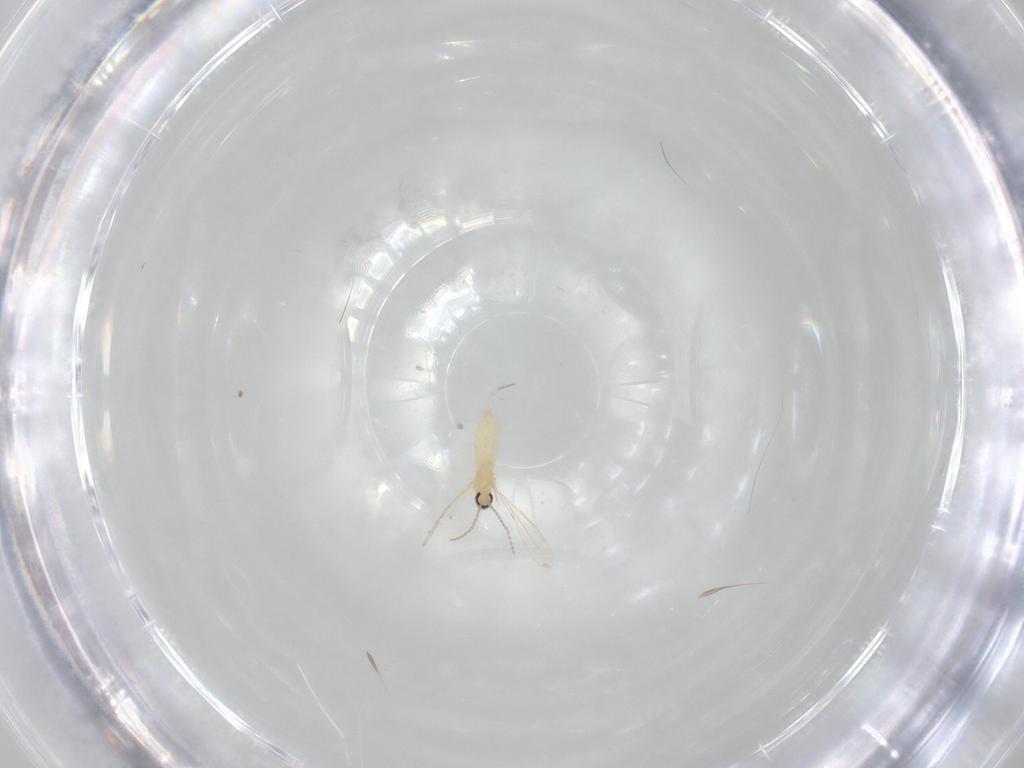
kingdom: Animalia
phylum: Arthropoda
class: Insecta
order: Diptera
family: Cecidomyiidae
